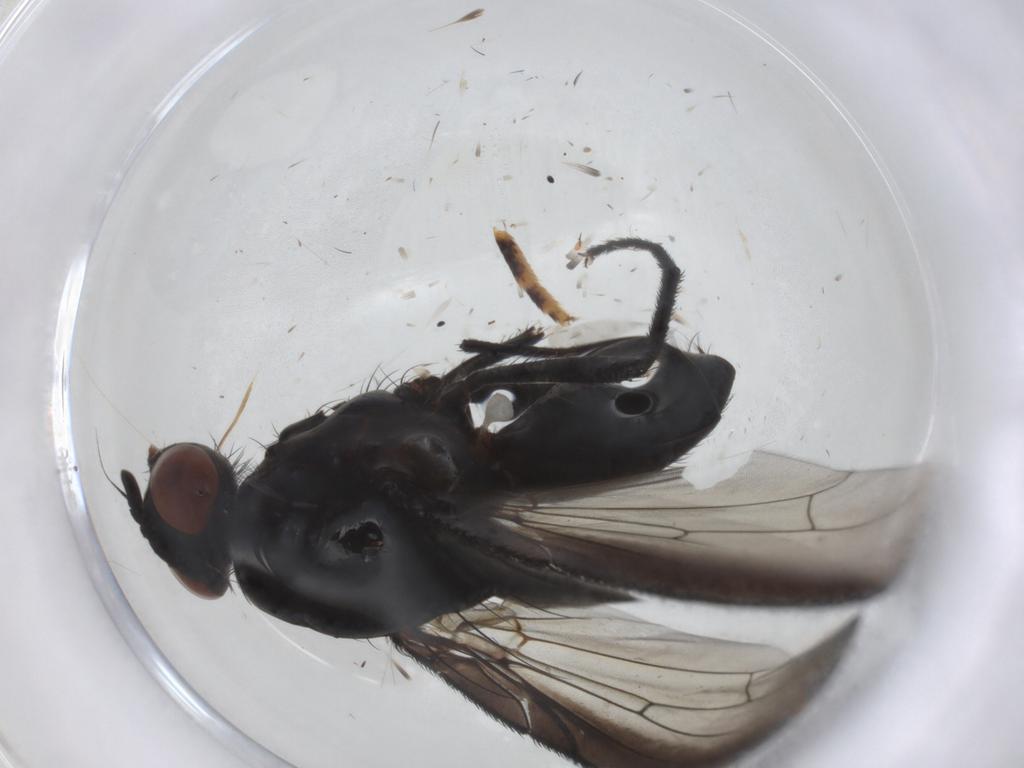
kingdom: Animalia
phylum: Arthropoda
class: Insecta
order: Diptera
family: Anthomyiidae
